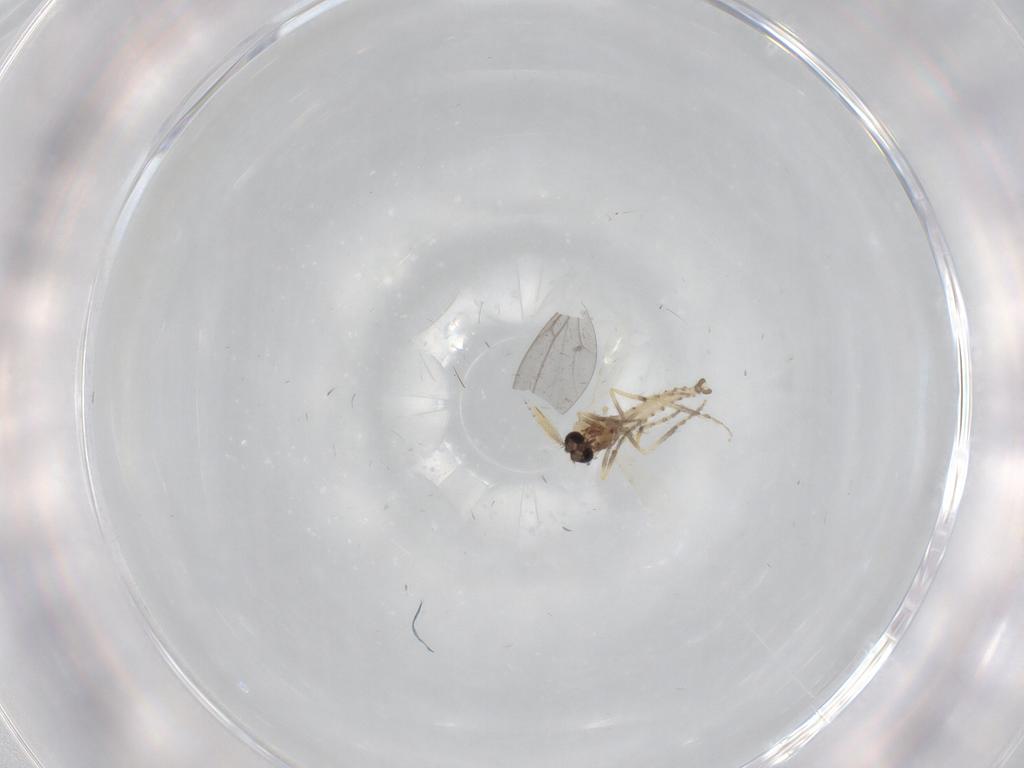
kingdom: Animalia
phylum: Arthropoda
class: Insecta
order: Diptera
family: Ceratopogonidae
